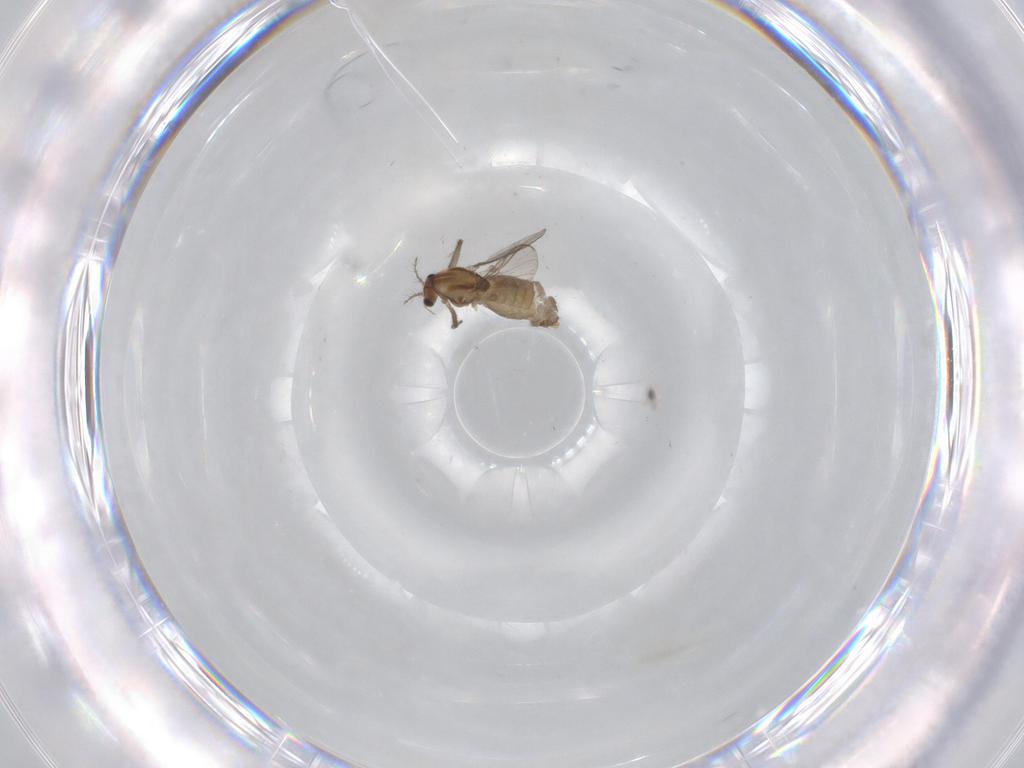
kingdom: Animalia
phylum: Arthropoda
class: Insecta
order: Diptera
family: Chironomidae
